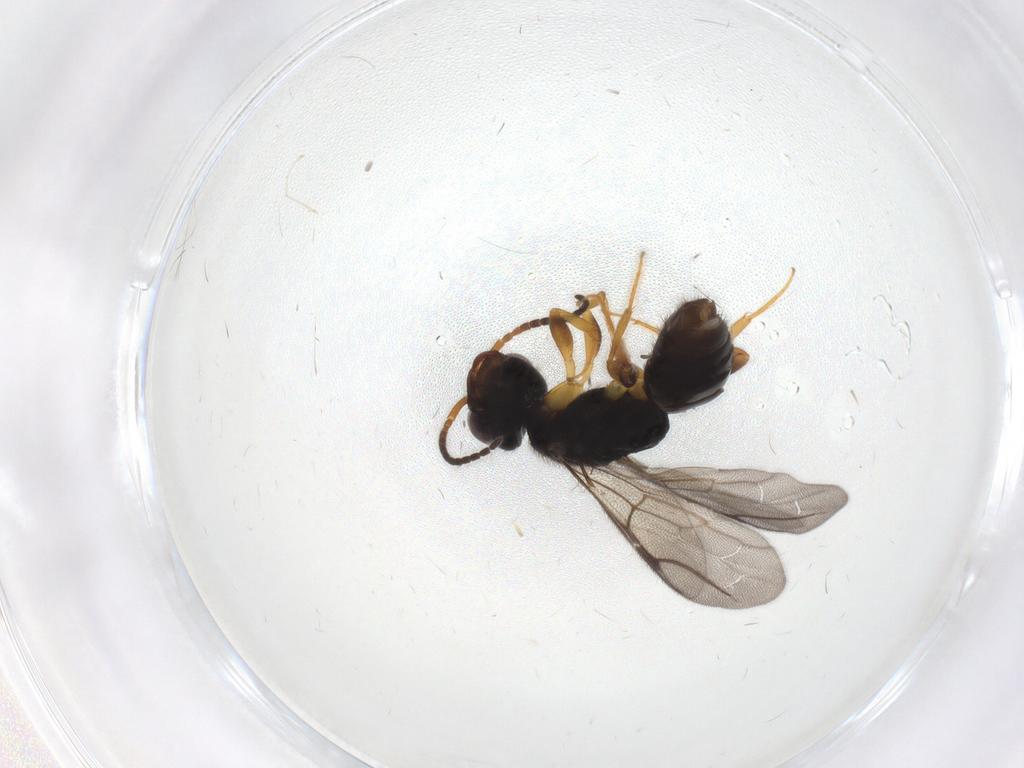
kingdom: Animalia
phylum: Arthropoda
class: Insecta
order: Hymenoptera
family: Bethylidae
